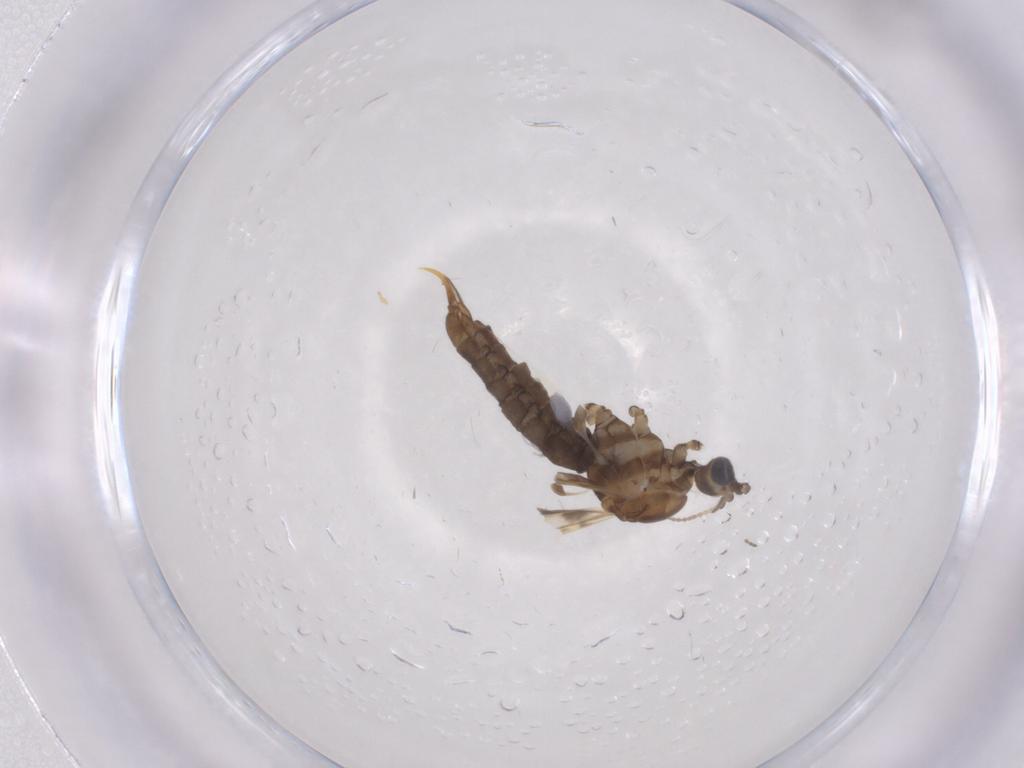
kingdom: Animalia
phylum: Arthropoda
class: Insecta
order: Diptera
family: Limoniidae
